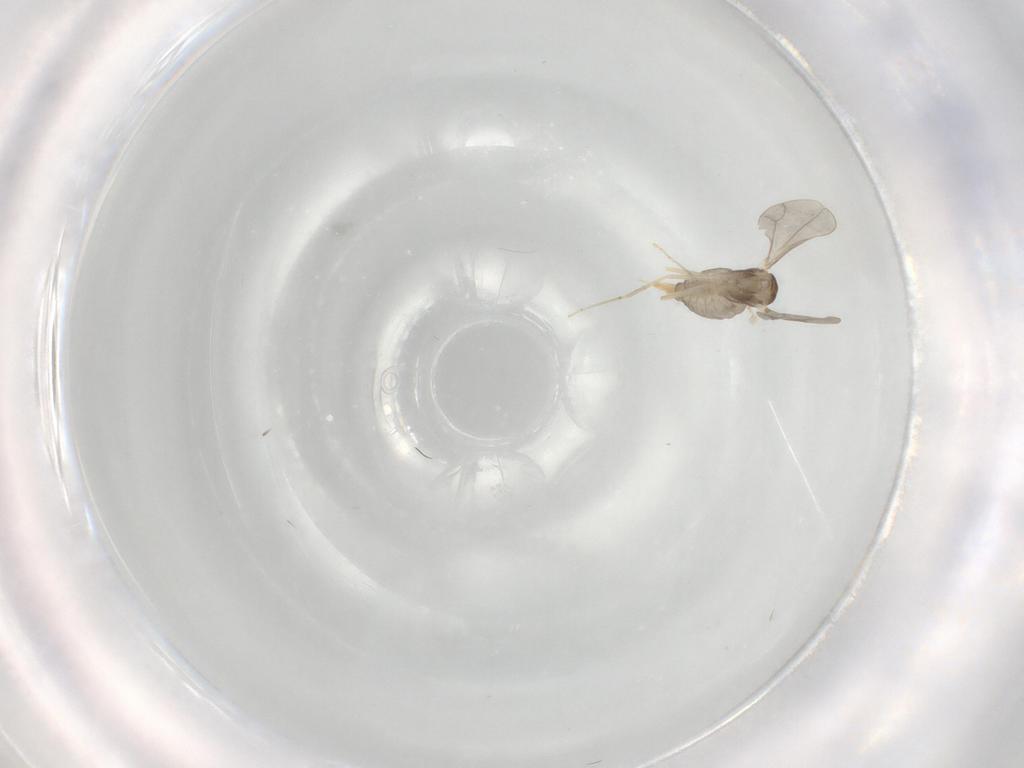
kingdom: Animalia
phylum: Arthropoda
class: Insecta
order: Diptera
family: Cecidomyiidae
